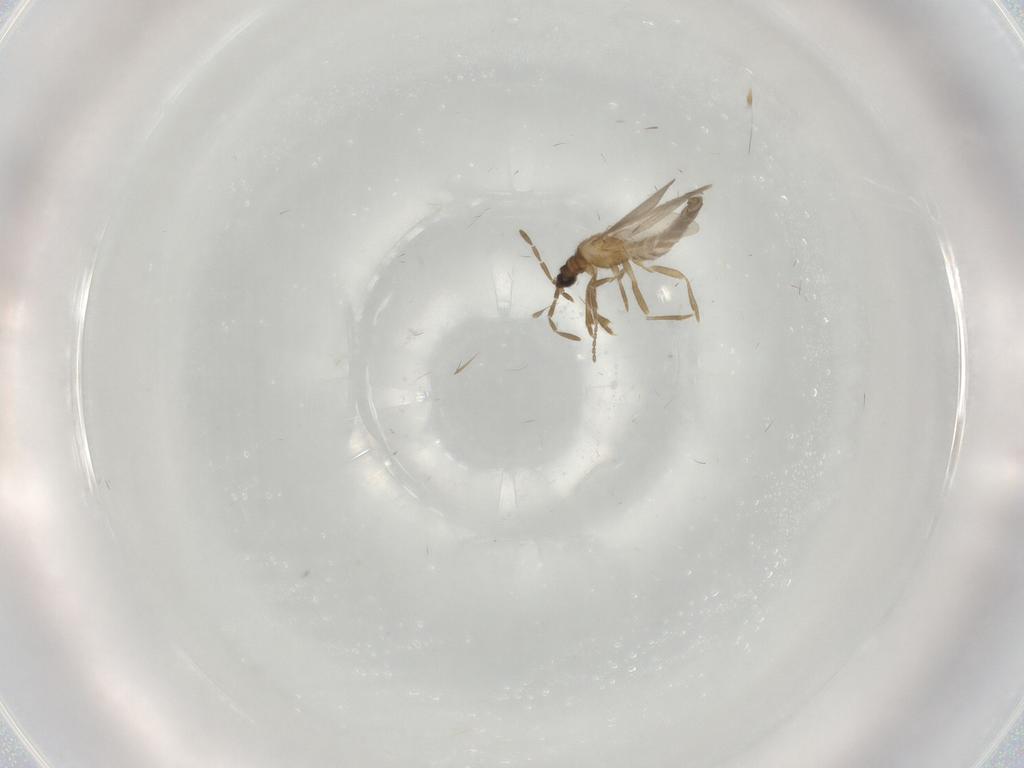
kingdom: Animalia
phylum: Arthropoda
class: Insecta
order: Hemiptera
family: Enicocephalidae
